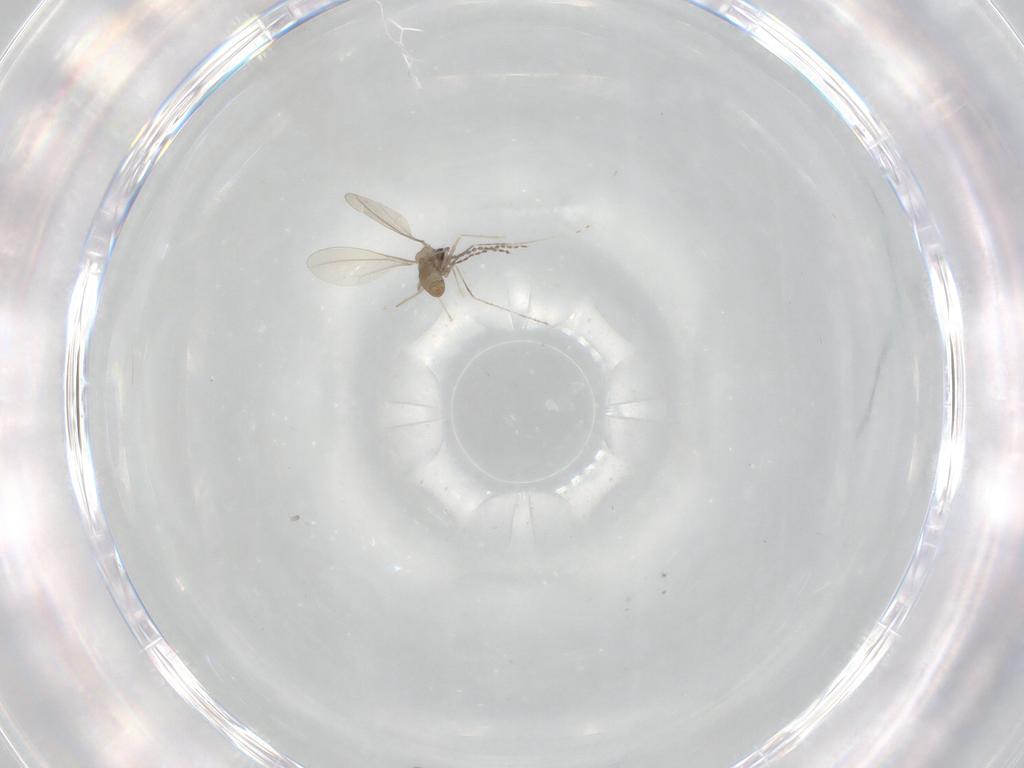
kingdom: Animalia
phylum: Arthropoda
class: Insecta
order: Diptera
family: Cecidomyiidae
